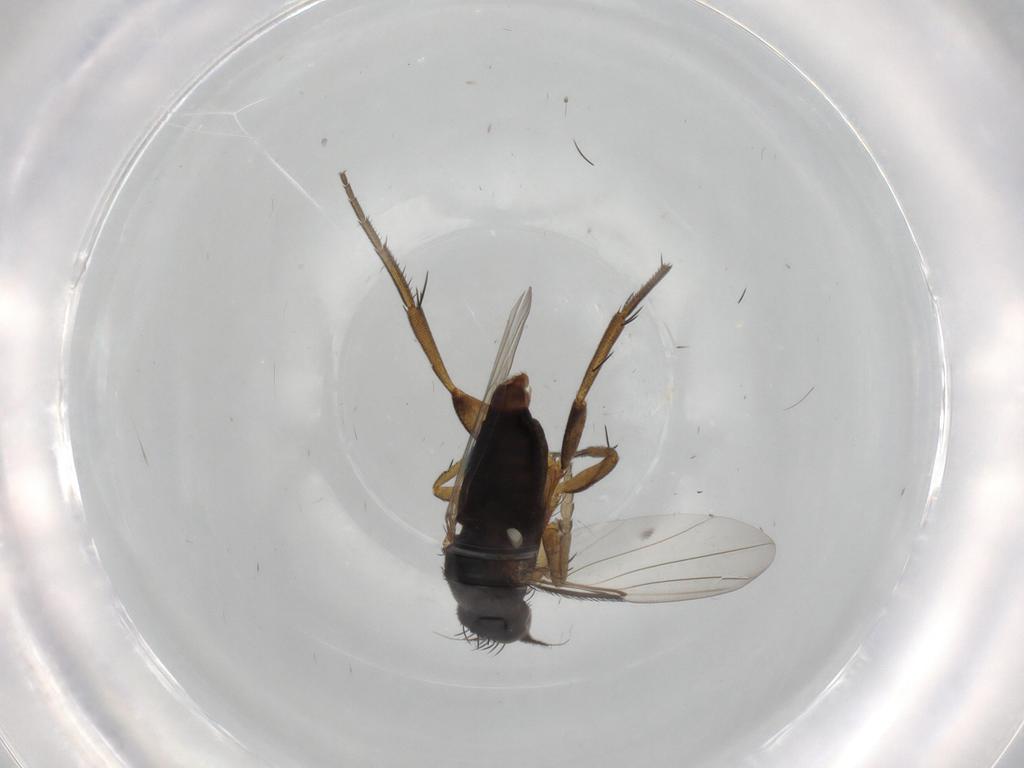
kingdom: Animalia
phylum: Arthropoda
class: Insecta
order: Diptera
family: Phoridae
